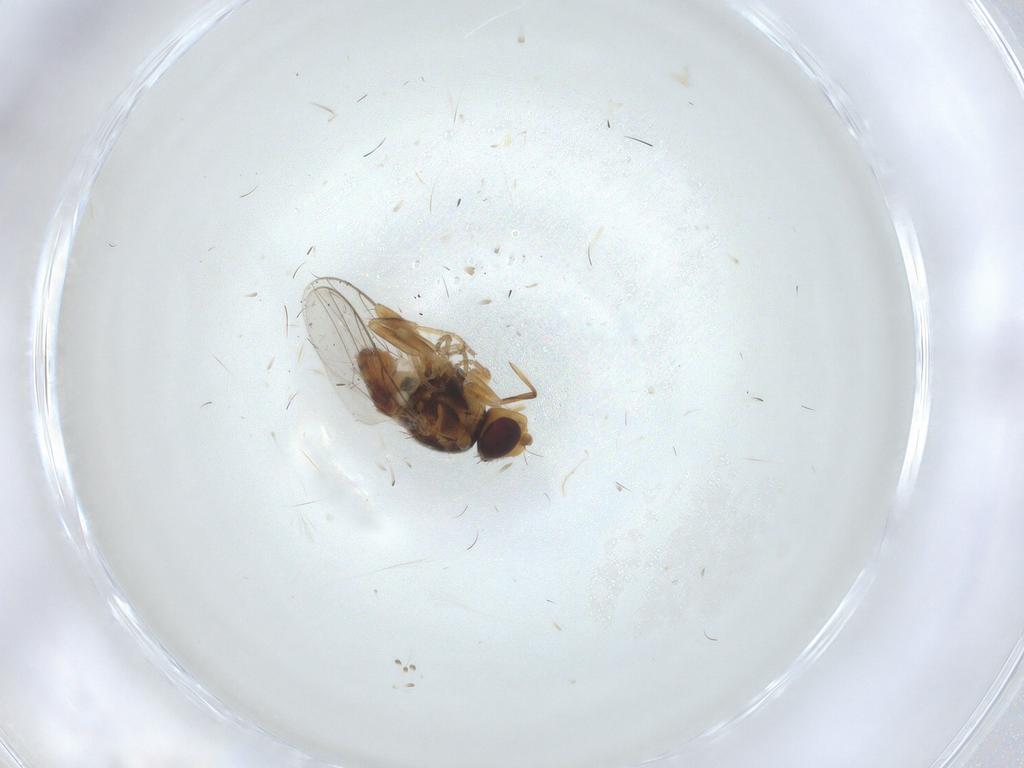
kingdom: Animalia
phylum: Arthropoda
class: Insecta
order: Diptera
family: Chloropidae
